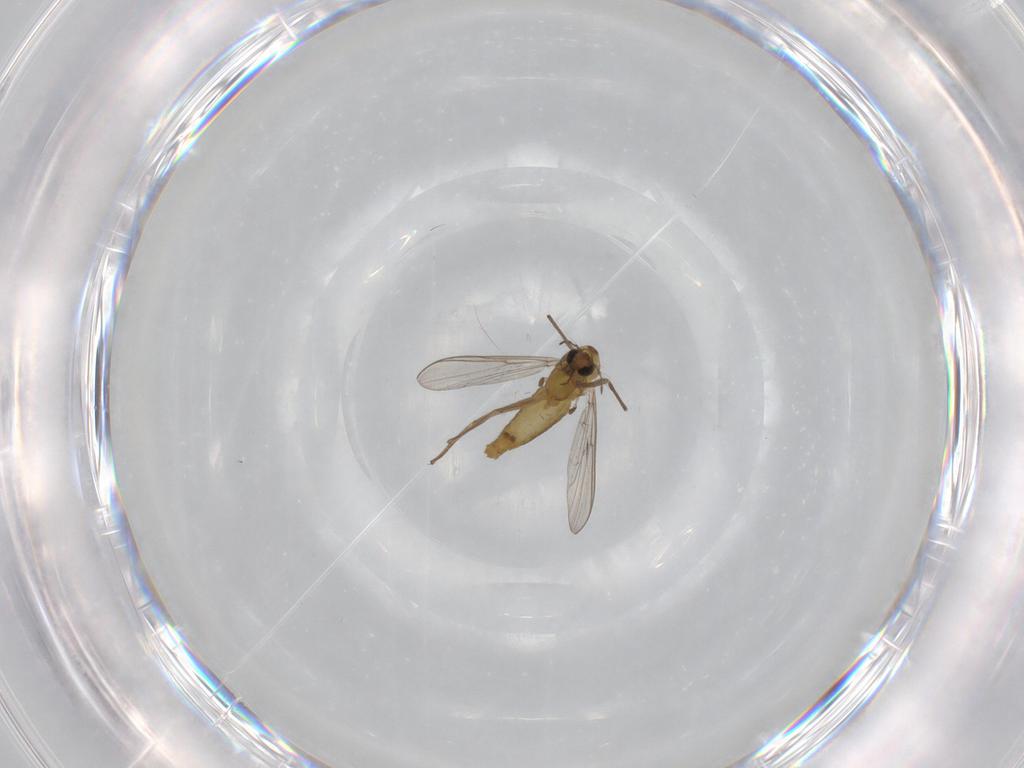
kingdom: Animalia
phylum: Arthropoda
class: Insecta
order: Diptera
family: Chironomidae
